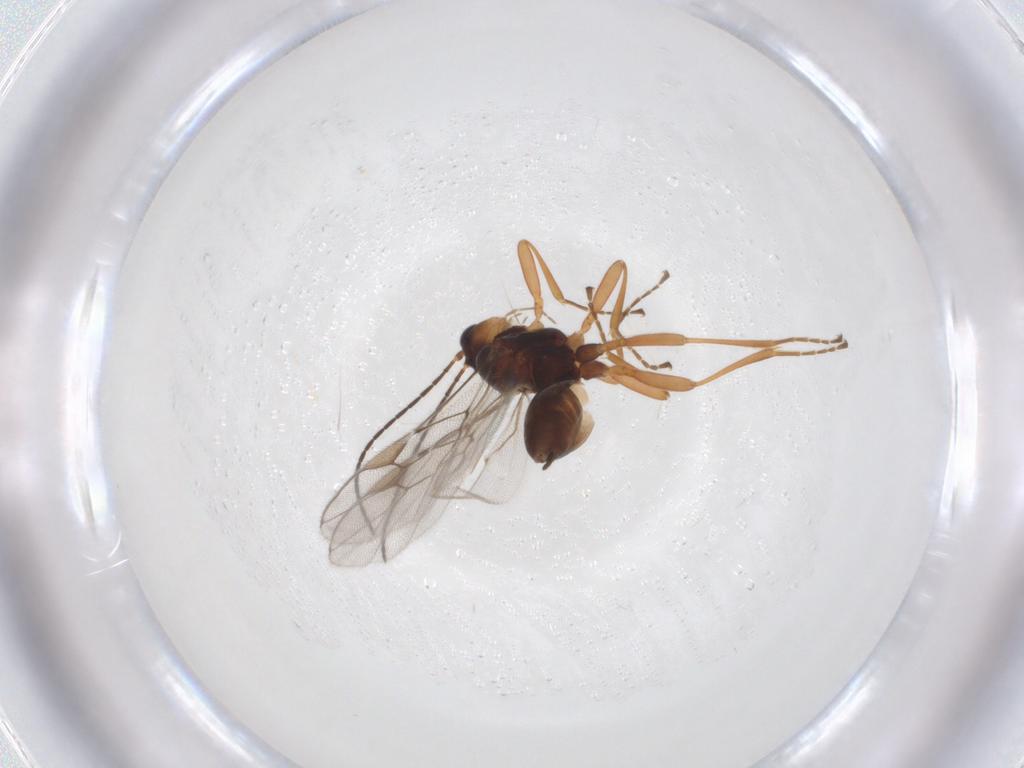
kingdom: Animalia
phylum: Arthropoda
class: Insecta
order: Hymenoptera
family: Braconidae
